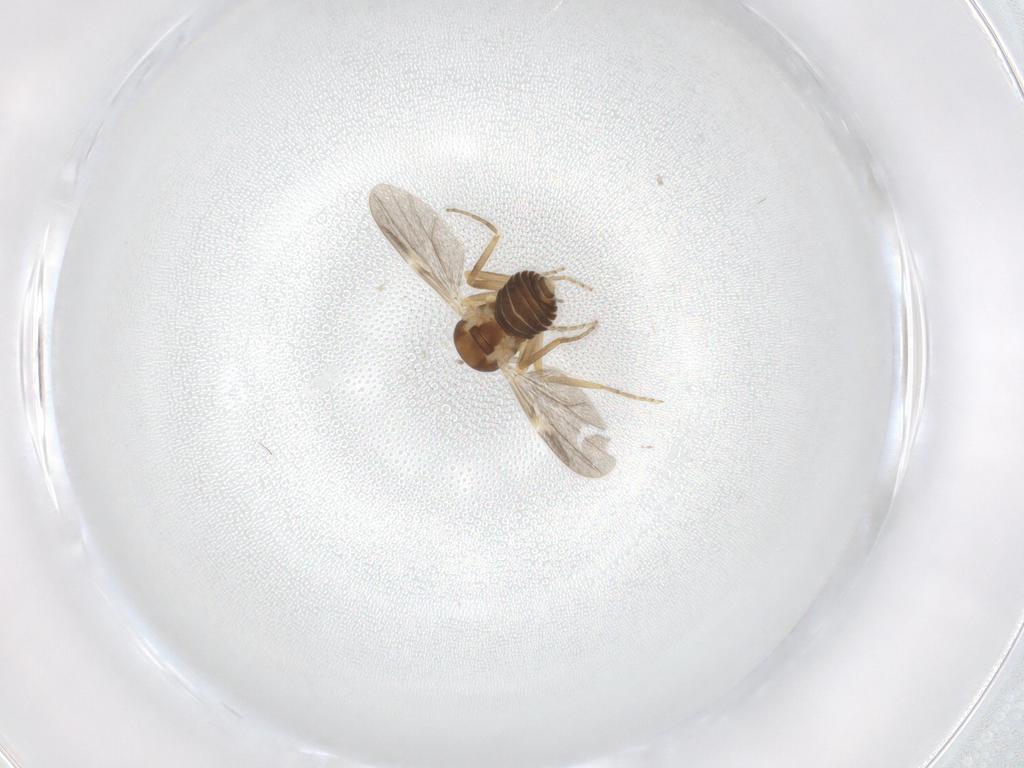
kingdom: Animalia
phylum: Arthropoda
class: Insecta
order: Diptera
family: Ceratopogonidae
